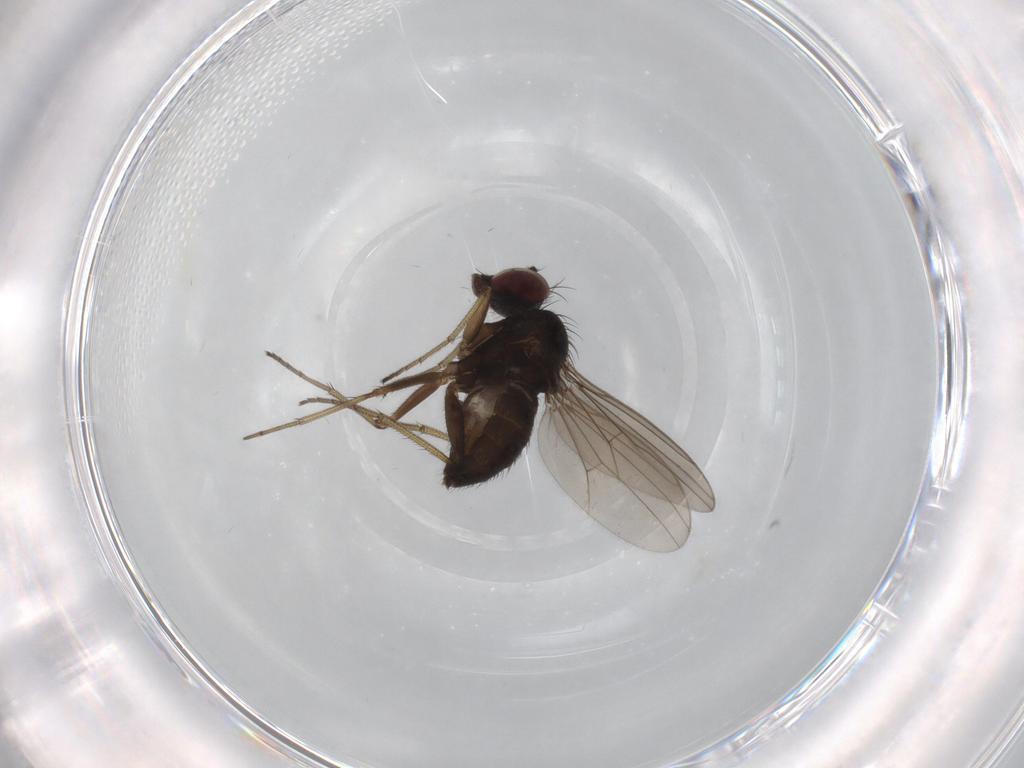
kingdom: Animalia
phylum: Arthropoda
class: Insecta
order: Diptera
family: Dolichopodidae
